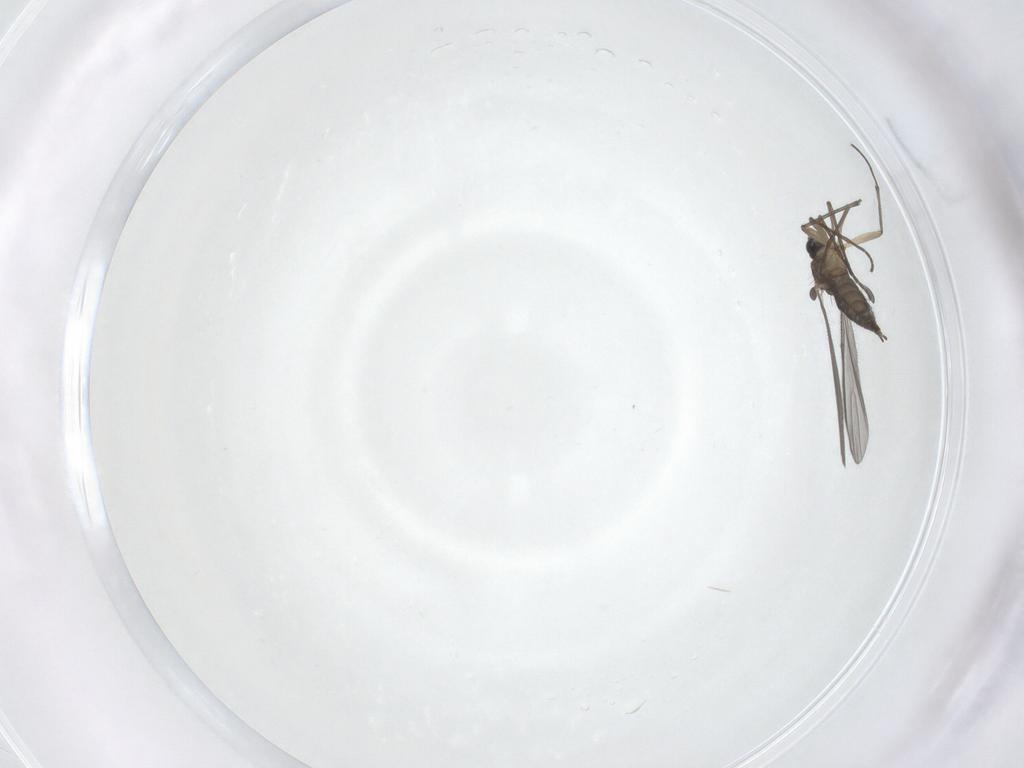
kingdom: Animalia
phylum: Arthropoda
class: Insecta
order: Diptera
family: Sciaridae
